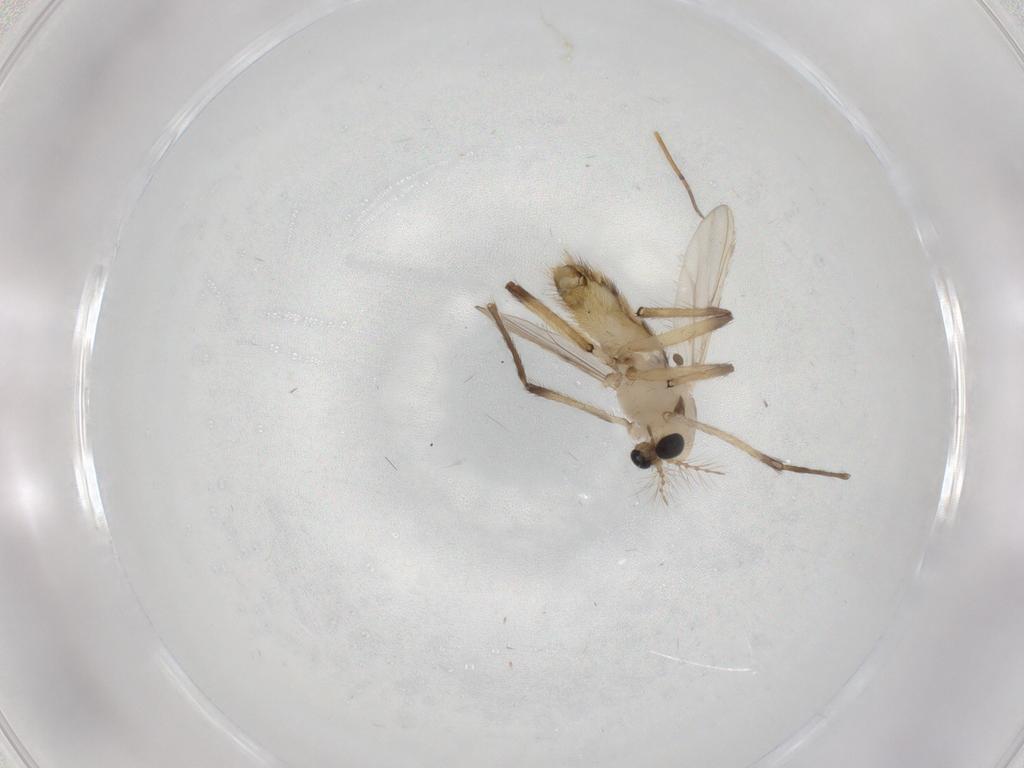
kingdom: Animalia
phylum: Arthropoda
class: Insecta
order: Diptera
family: Chironomidae
